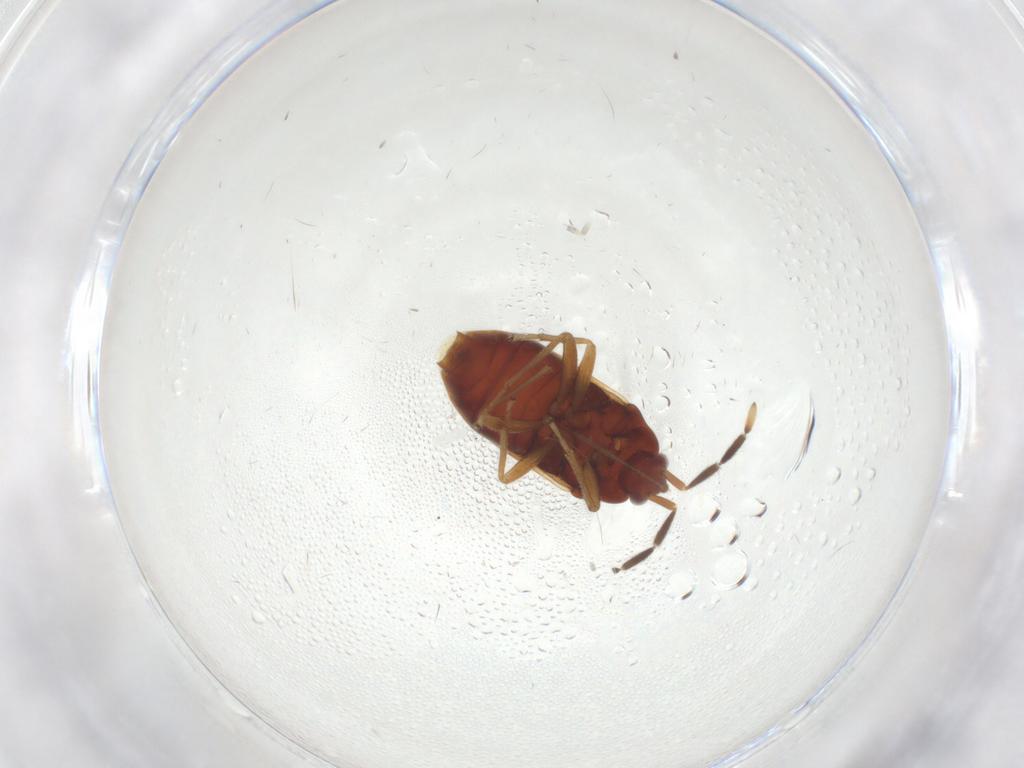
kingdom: Animalia
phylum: Arthropoda
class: Insecta
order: Hemiptera
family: Rhyparochromidae
